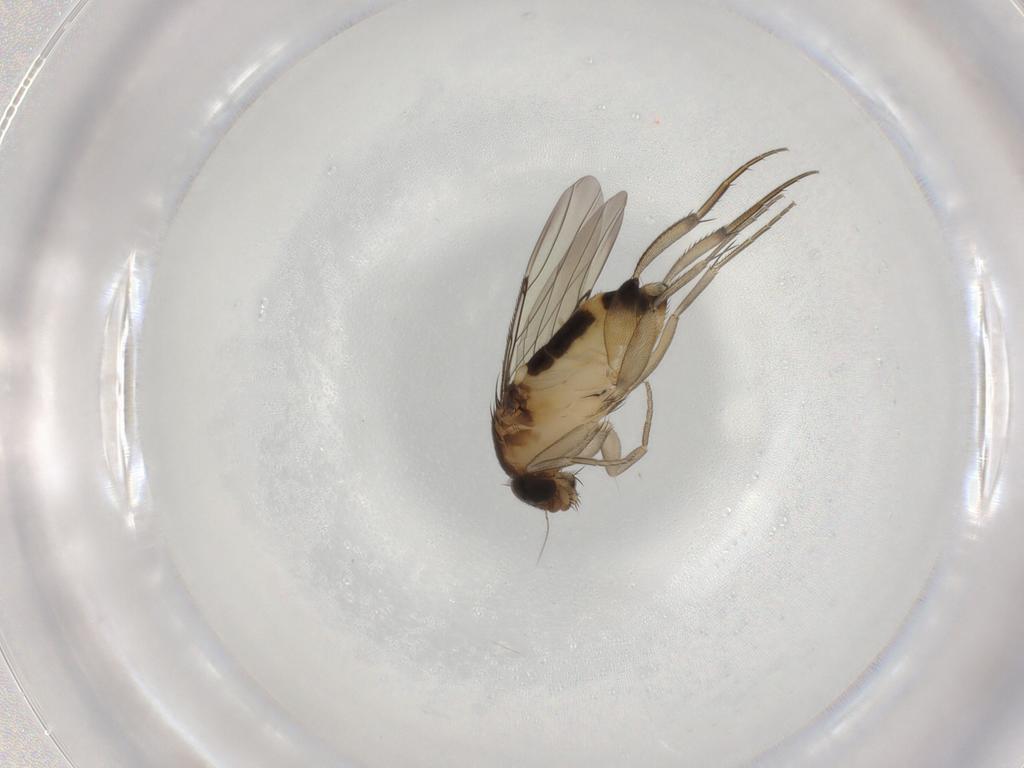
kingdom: Animalia
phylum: Arthropoda
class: Insecta
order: Diptera
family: Phoridae
